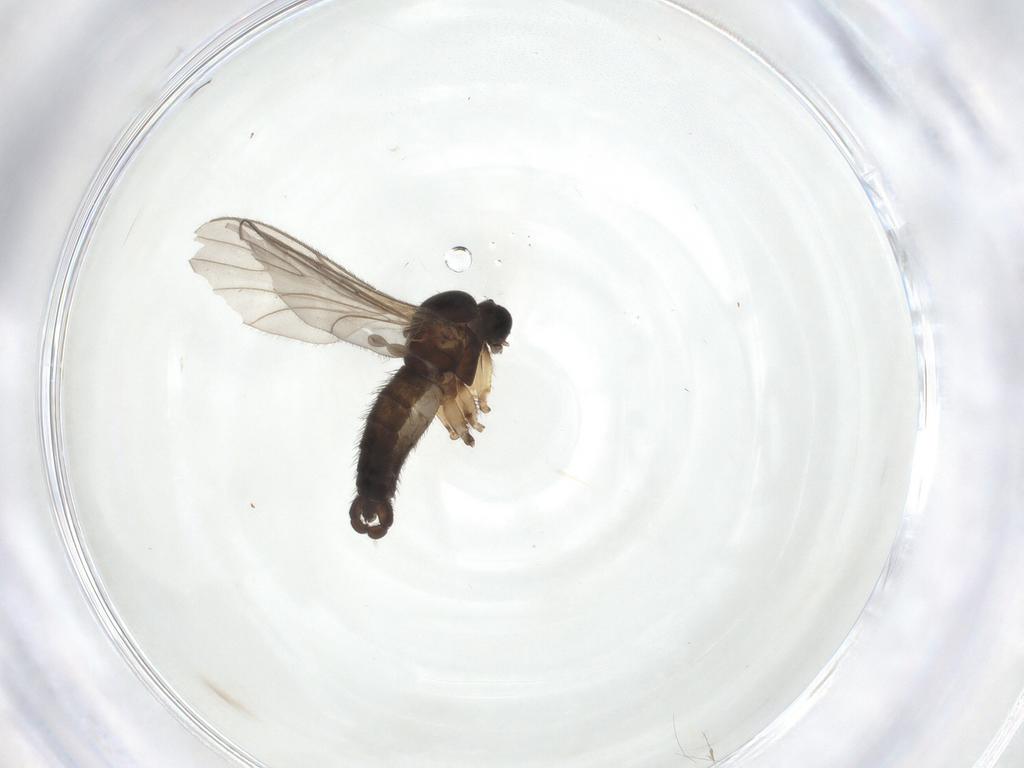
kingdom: Animalia
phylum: Arthropoda
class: Insecta
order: Diptera
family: Sciaridae
